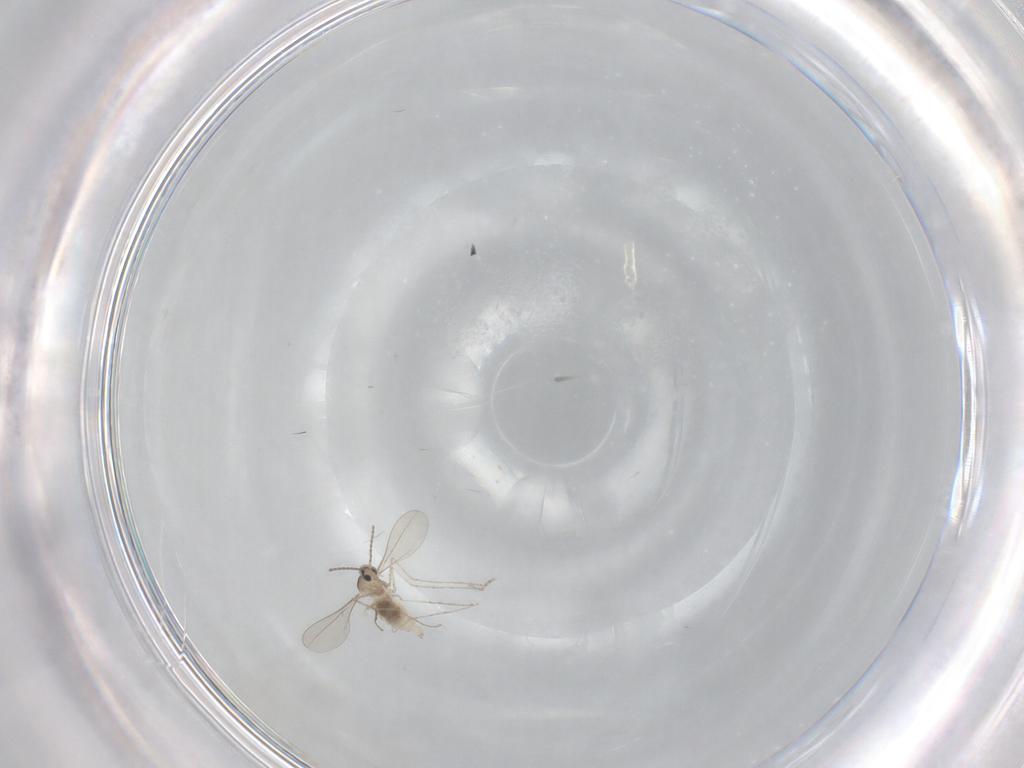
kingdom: Animalia
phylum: Arthropoda
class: Insecta
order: Diptera
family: Cecidomyiidae
